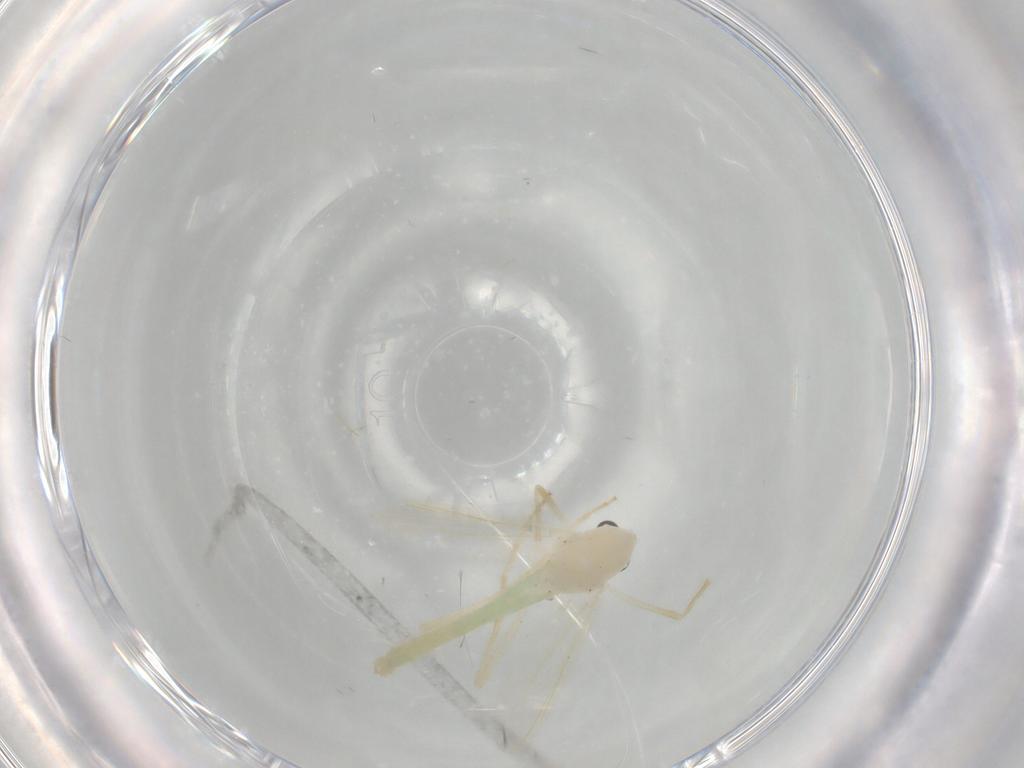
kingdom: Animalia
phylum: Arthropoda
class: Insecta
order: Diptera
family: Chironomidae
